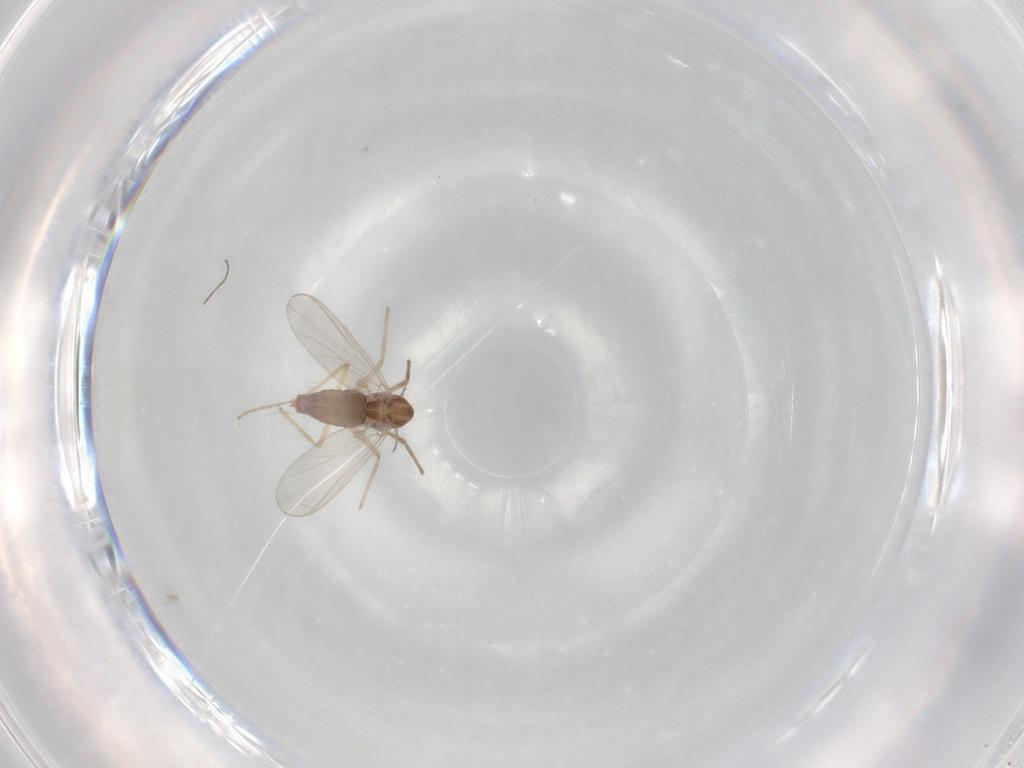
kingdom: Animalia
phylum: Arthropoda
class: Insecta
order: Diptera
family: Chironomidae
